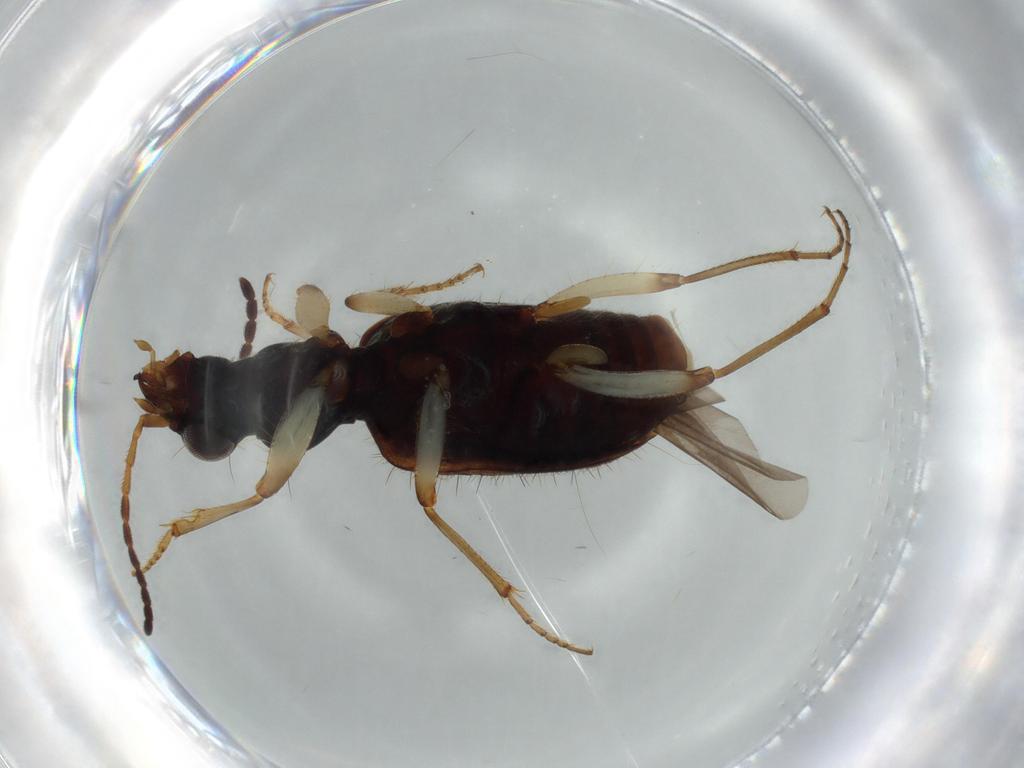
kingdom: Animalia
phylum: Arthropoda
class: Insecta
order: Coleoptera
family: Carabidae
